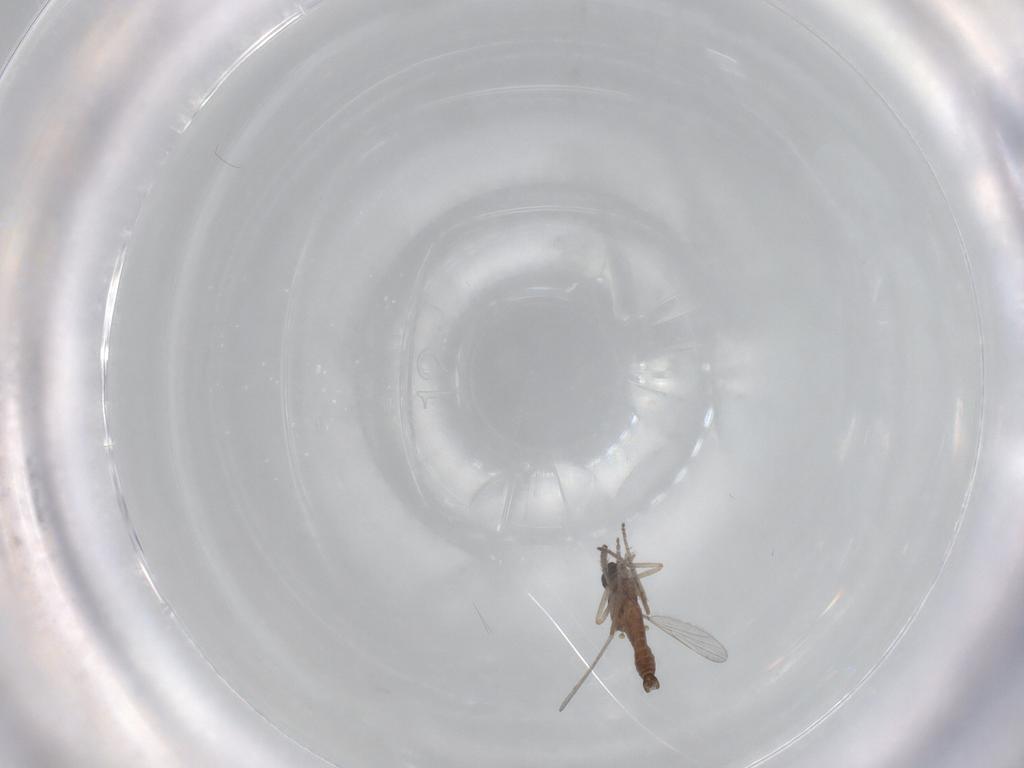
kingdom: Animalia
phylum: Arthropoda
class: Insecta
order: Diptera
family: Ceratopogonidae
